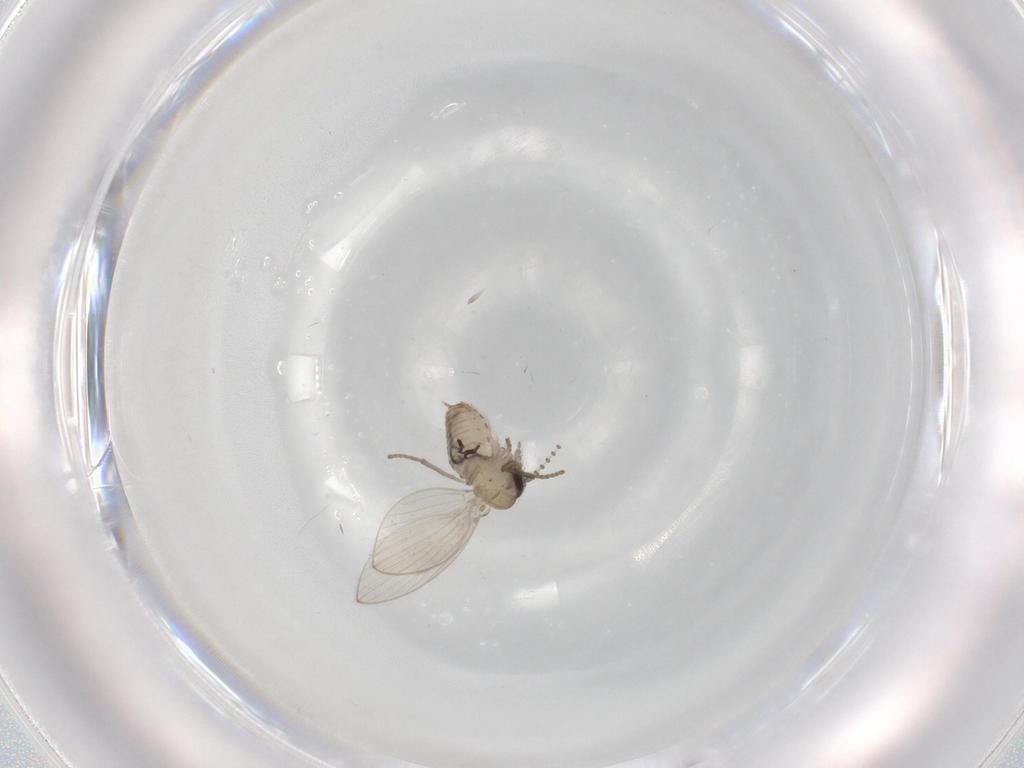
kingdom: Animalia
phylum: Arthropoda
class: Insecta
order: Diptera
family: Psychodidae
